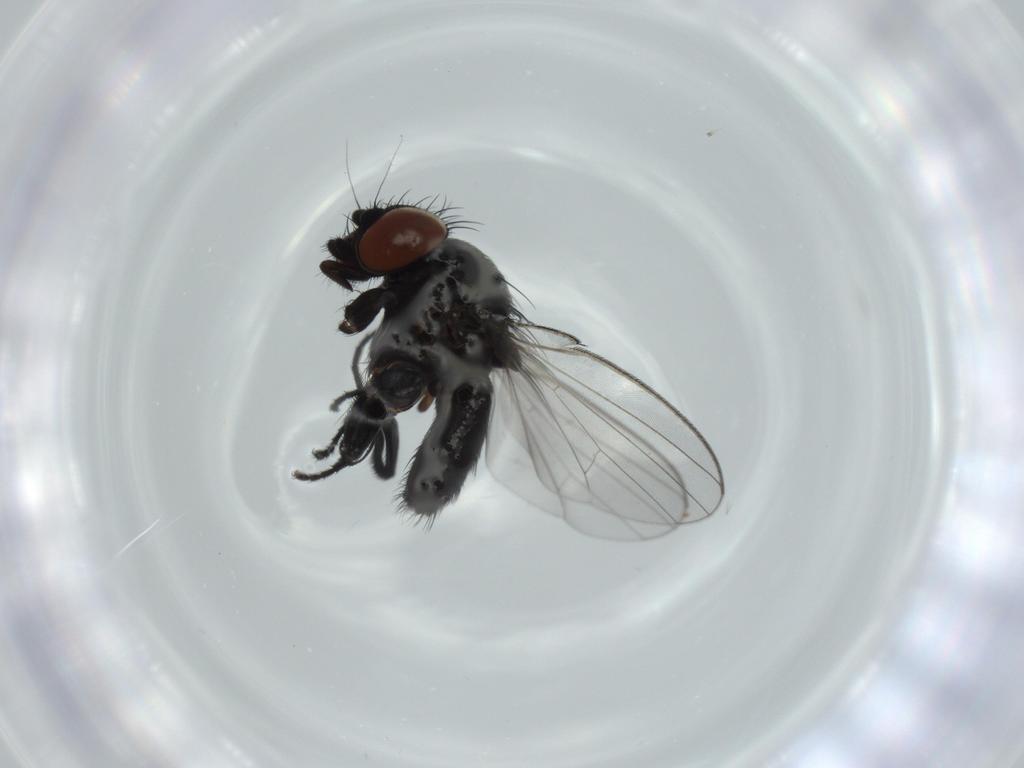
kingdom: Animalia
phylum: Arthropoda
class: Insecta
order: Diptera
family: Milichiidae
